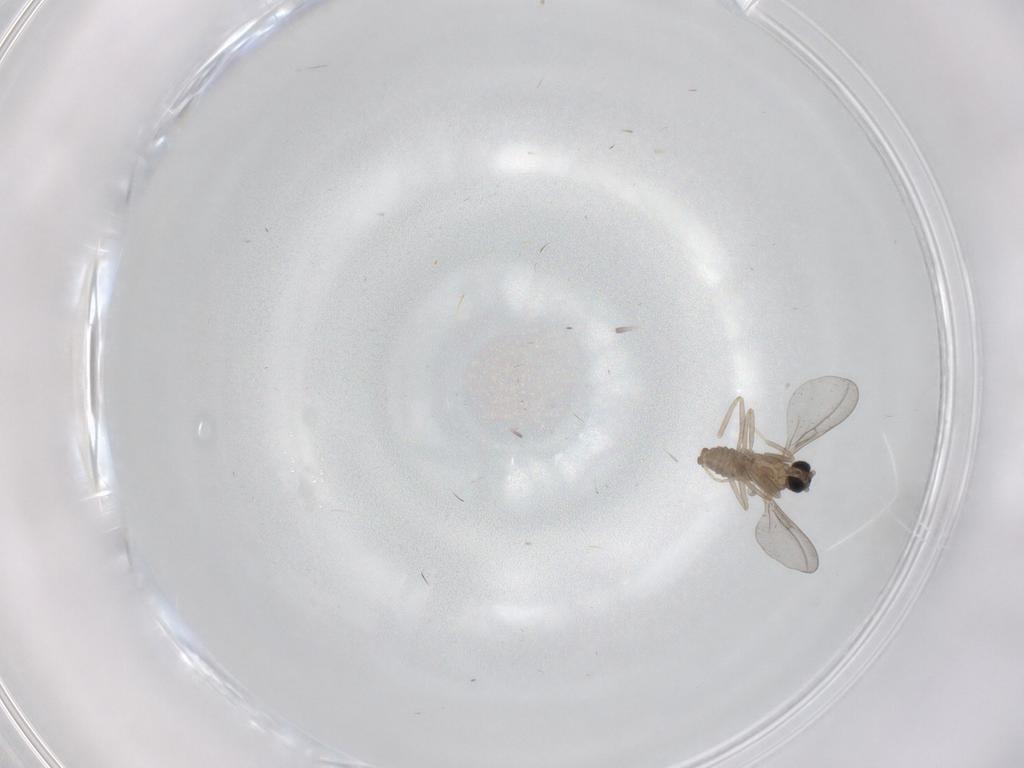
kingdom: Animalia
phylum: Arthropoda
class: Insecta
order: Diptera
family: Cecidomyiidae
